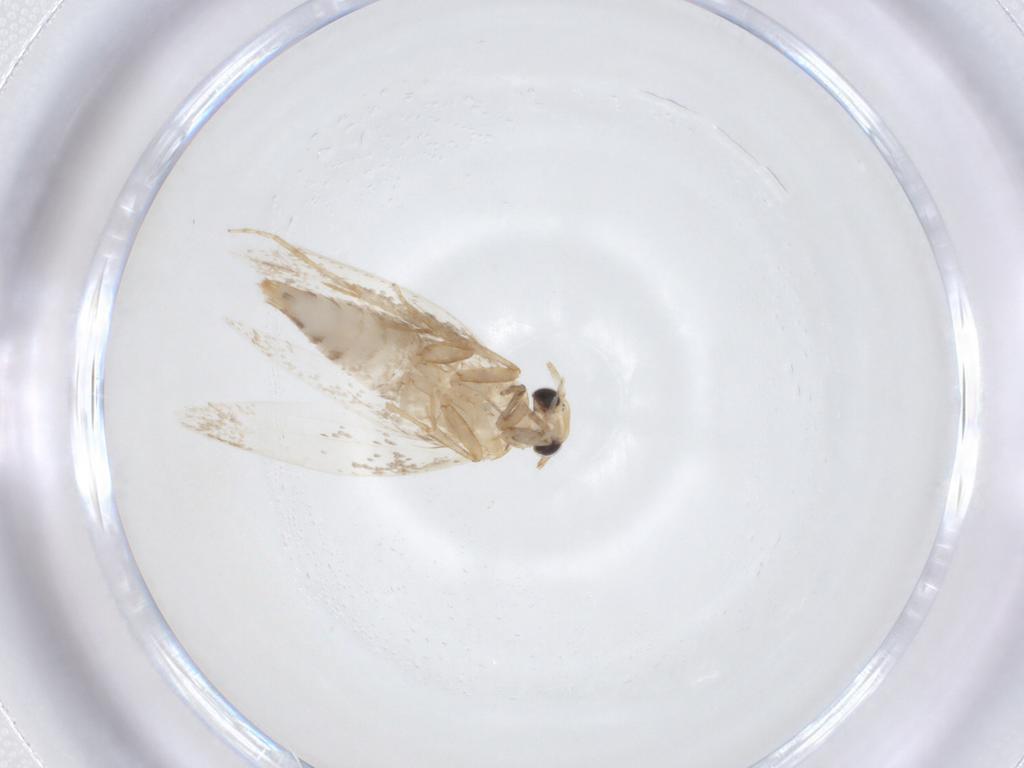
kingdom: Animalia
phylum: Arthropoda
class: Insecta
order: Lepidoptera
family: Tineidae
